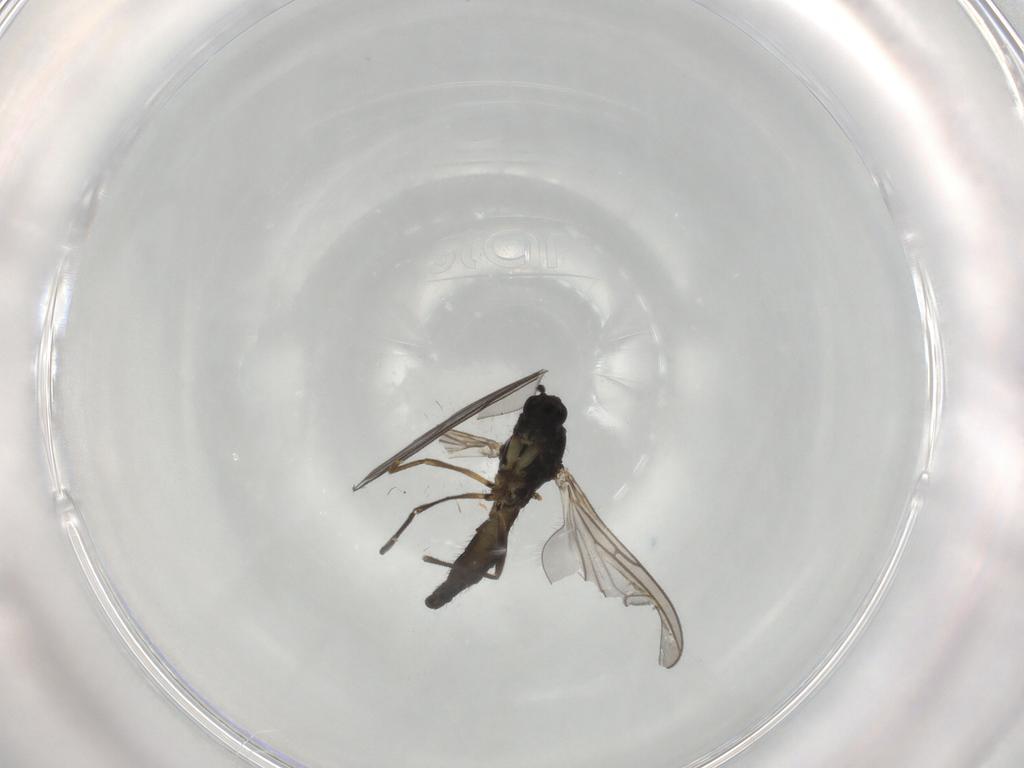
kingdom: Animalia
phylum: Arthropoda
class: Insecta
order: Diptera
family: Sciaridae
